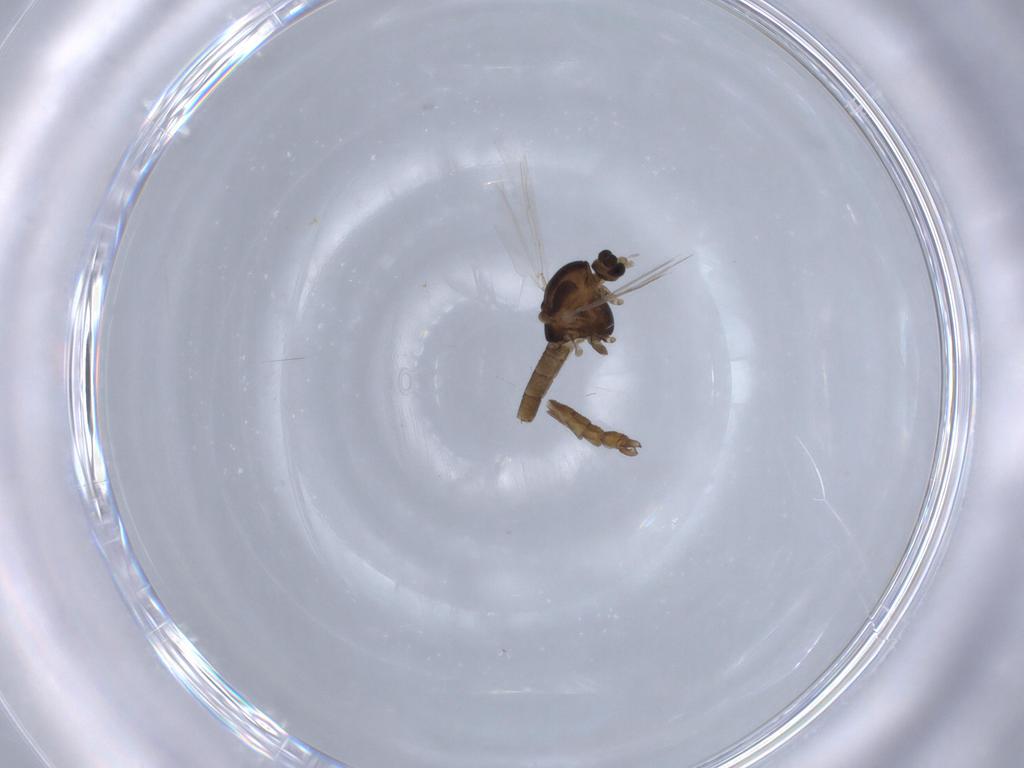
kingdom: Animalia
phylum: Arthropoda
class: Insecta
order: Diptera
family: Chironomidae
